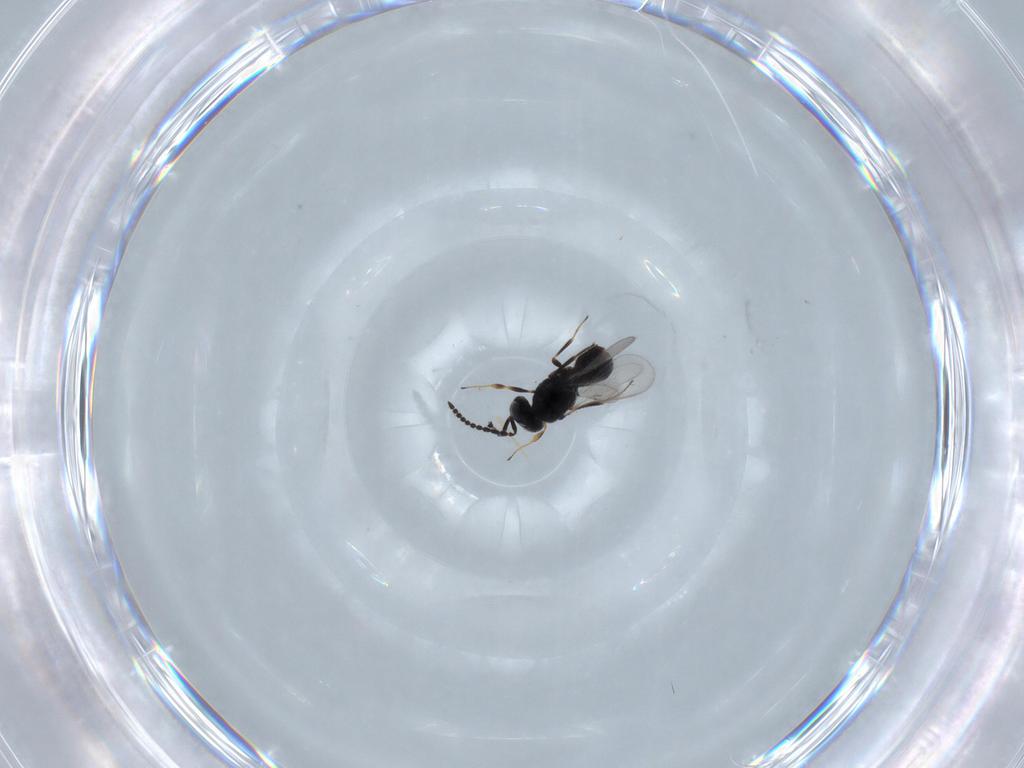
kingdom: Animalia
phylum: Arthropoda
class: Insecta
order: Hymenoptera
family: Scelionidae
